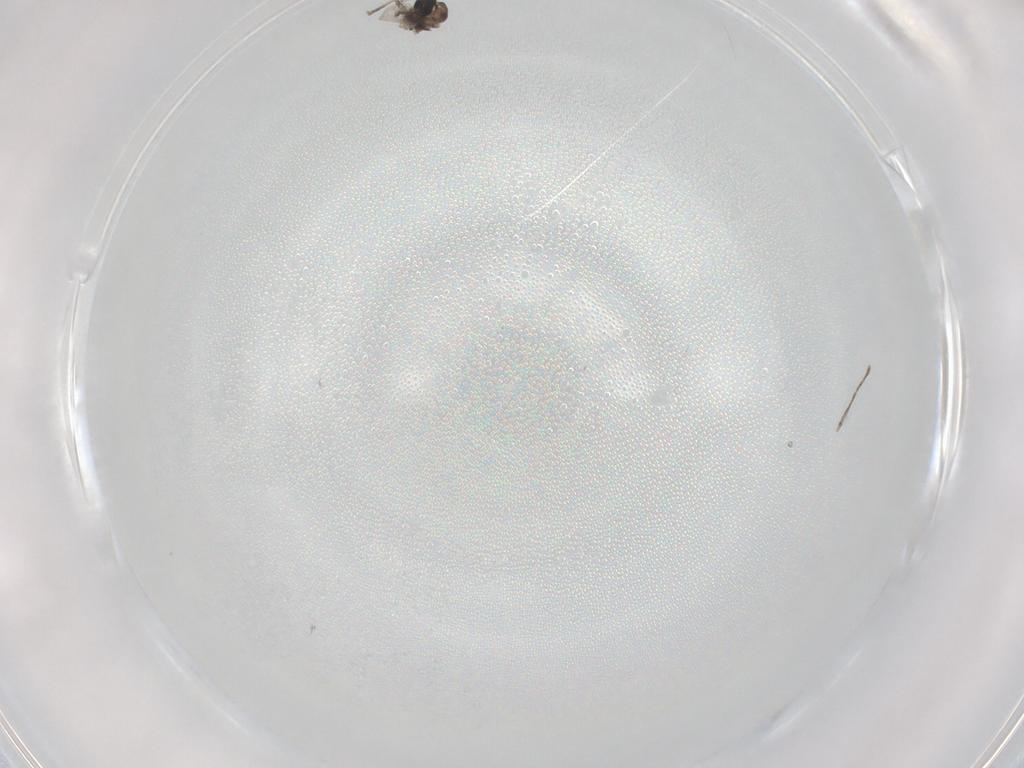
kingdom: Animalia
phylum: Arthropoda
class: Insecta
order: Diptera
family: Cecidomyiidae
